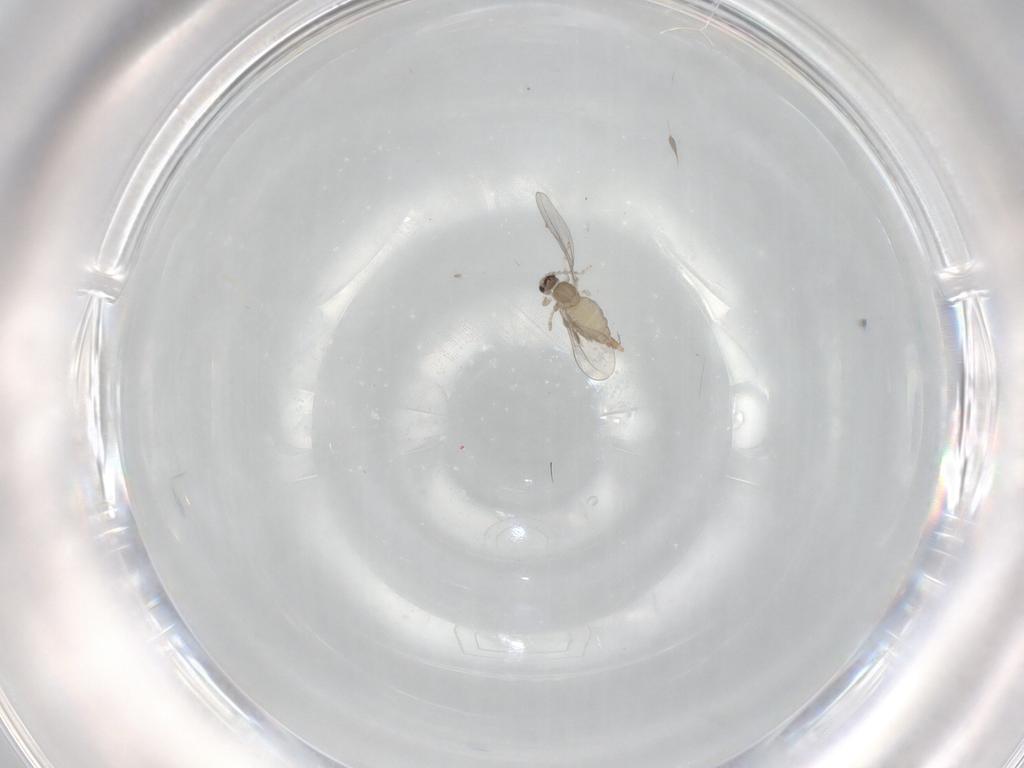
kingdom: Animalia
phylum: Arthropoda
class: Insecta
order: Diptera
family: Cecidomyiidae
